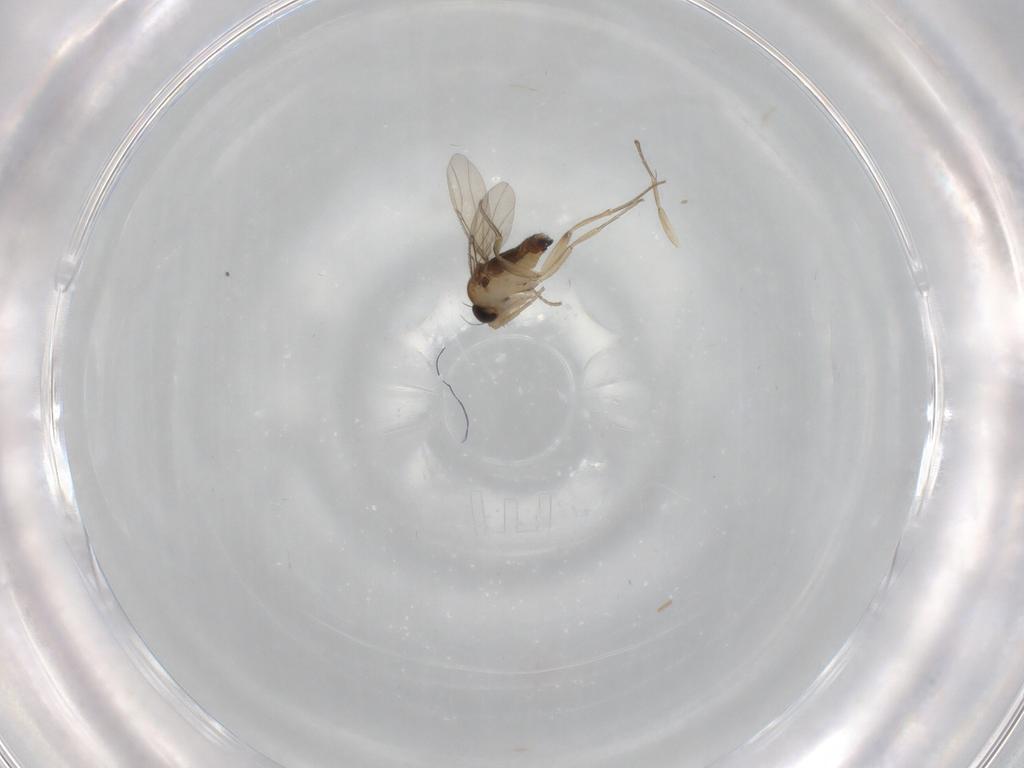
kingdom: Animalia
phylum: Arthropoda
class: Insecta
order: Diptera
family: Phoridae
